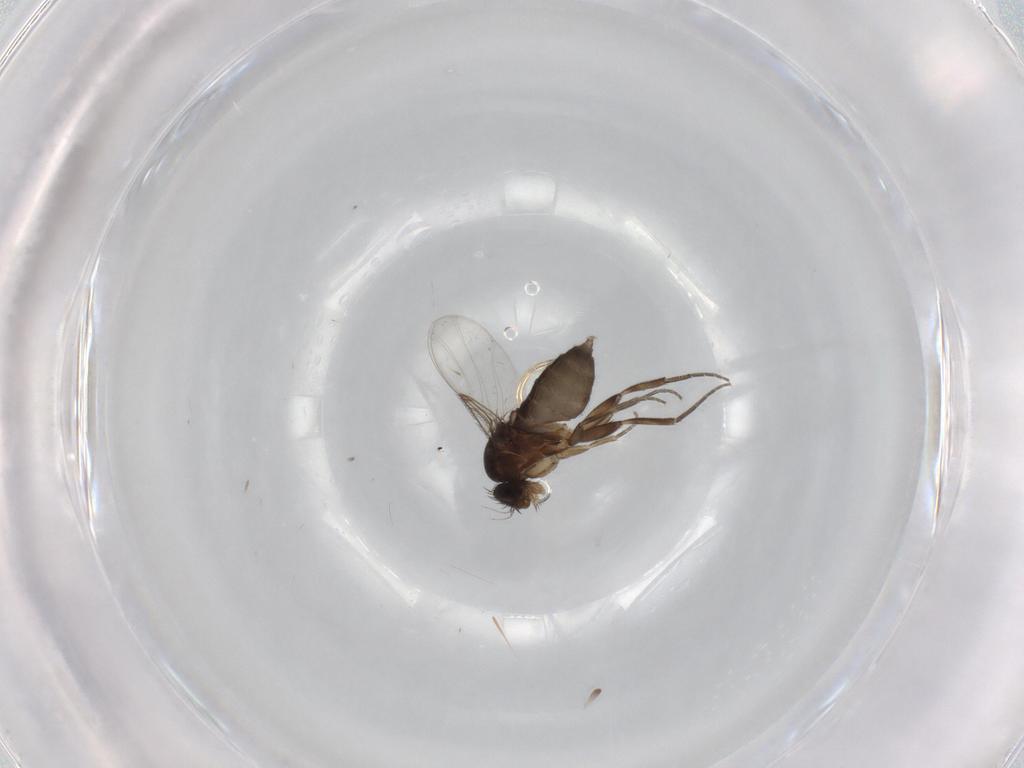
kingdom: Animalia
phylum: Arthropoda
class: Insecta
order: Diptera
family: Phoridae
